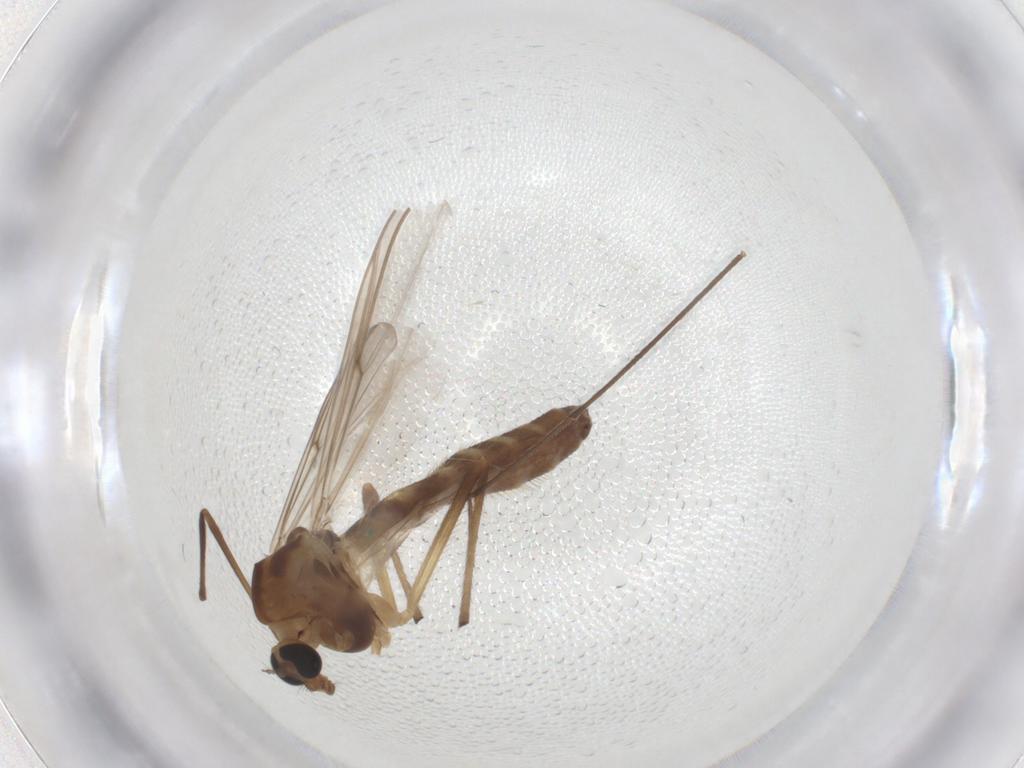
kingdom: Animalia
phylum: Arthropoda
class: Insecta
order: Diptera
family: Chironomidae
